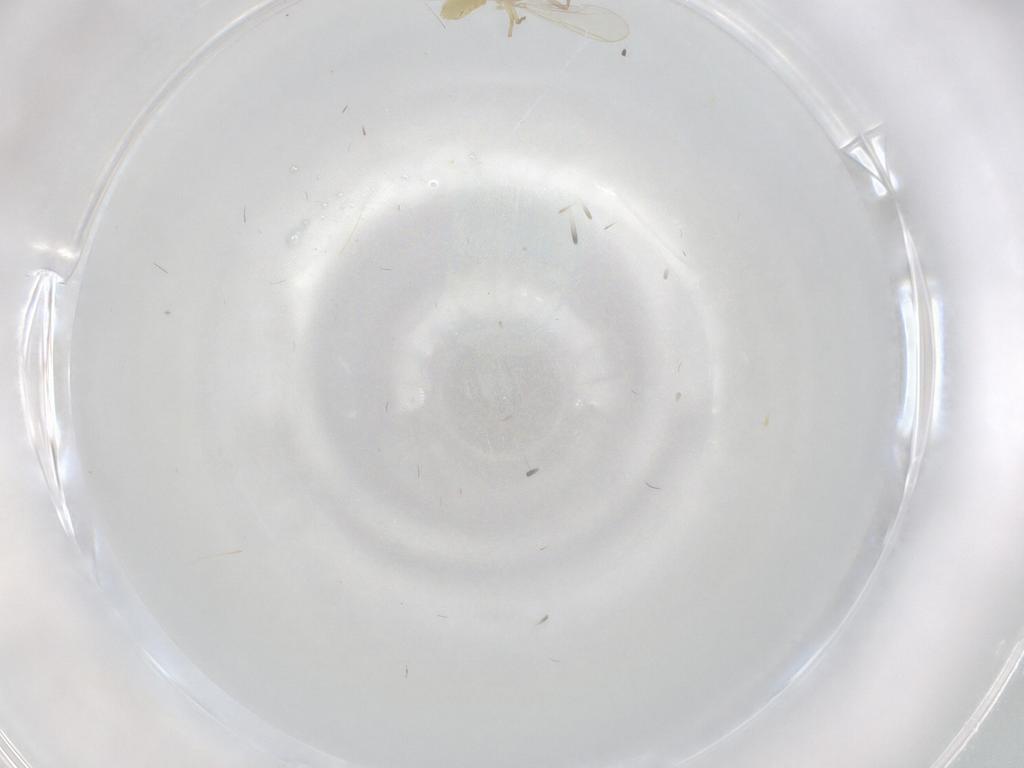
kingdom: Animalia
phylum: Arthropoda
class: Insecta
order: Diptera
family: Chironomidae
